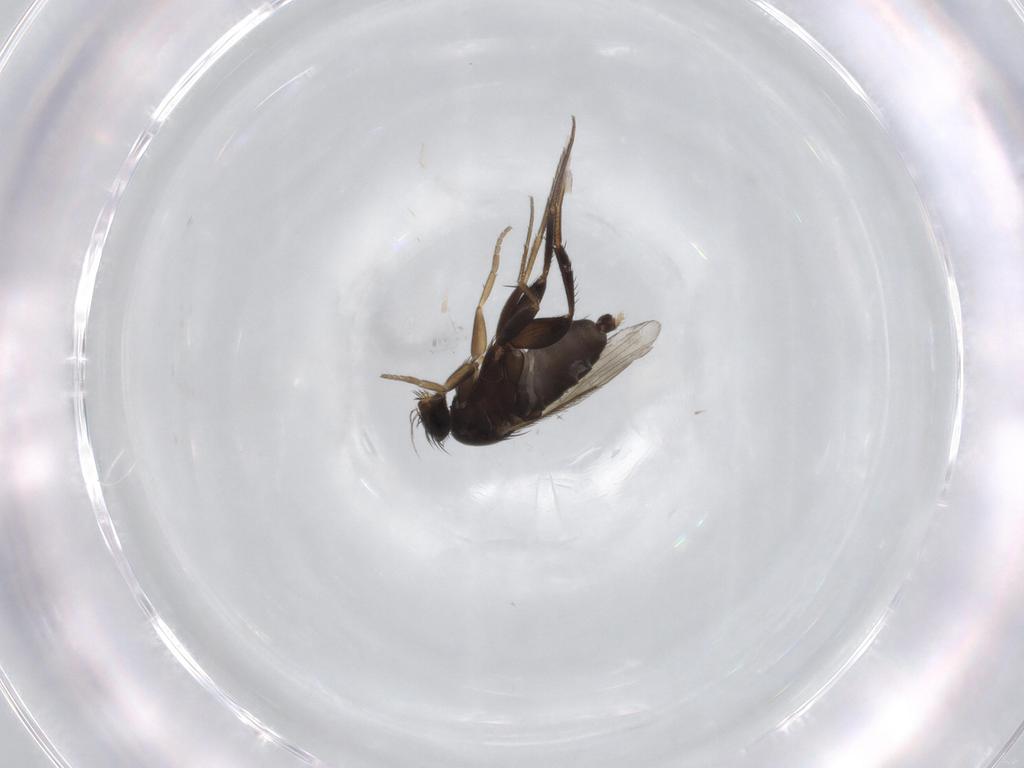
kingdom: Animalia
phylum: Arthropoda
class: Insecta
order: Diptera
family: Phoridae
